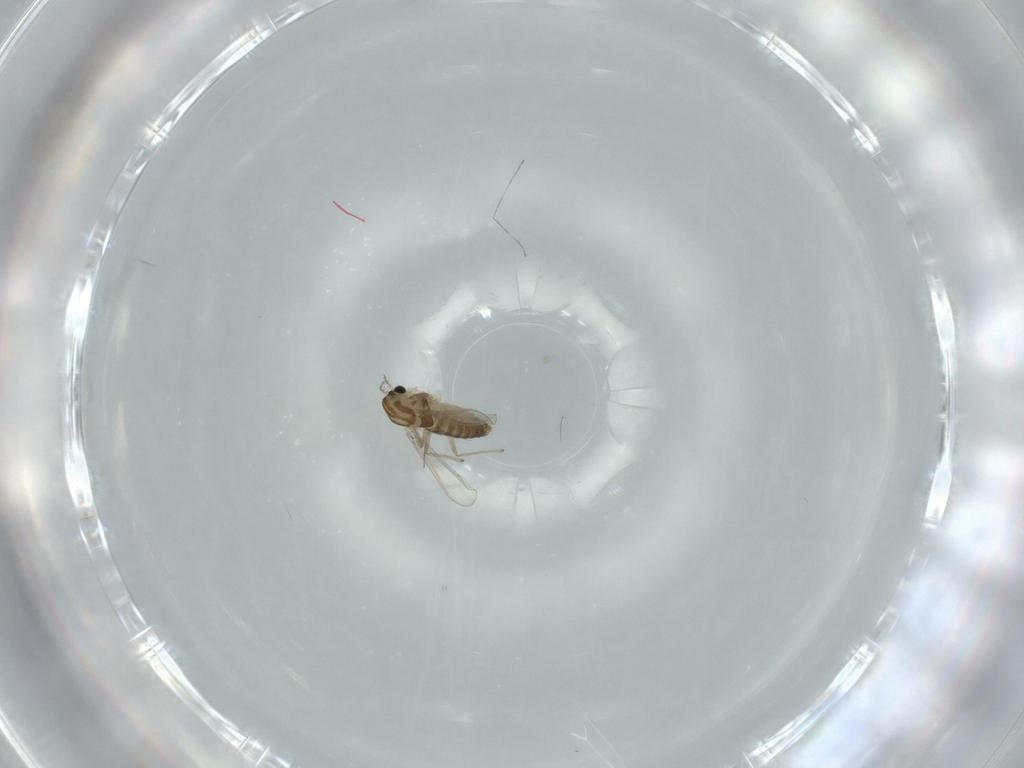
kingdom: Animalia
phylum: Arthropoda
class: Insecta
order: Diptera
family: Chironomidae
